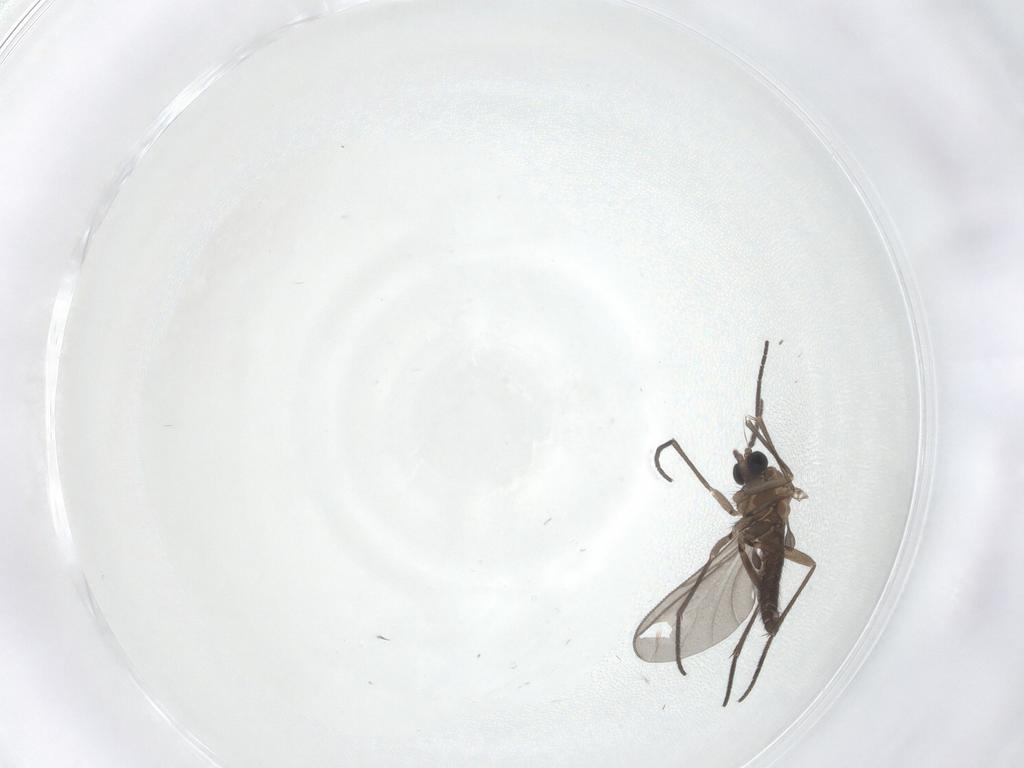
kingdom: Animalia
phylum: Arthropoda
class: Insecta
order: Diptera
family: Sciaridae
